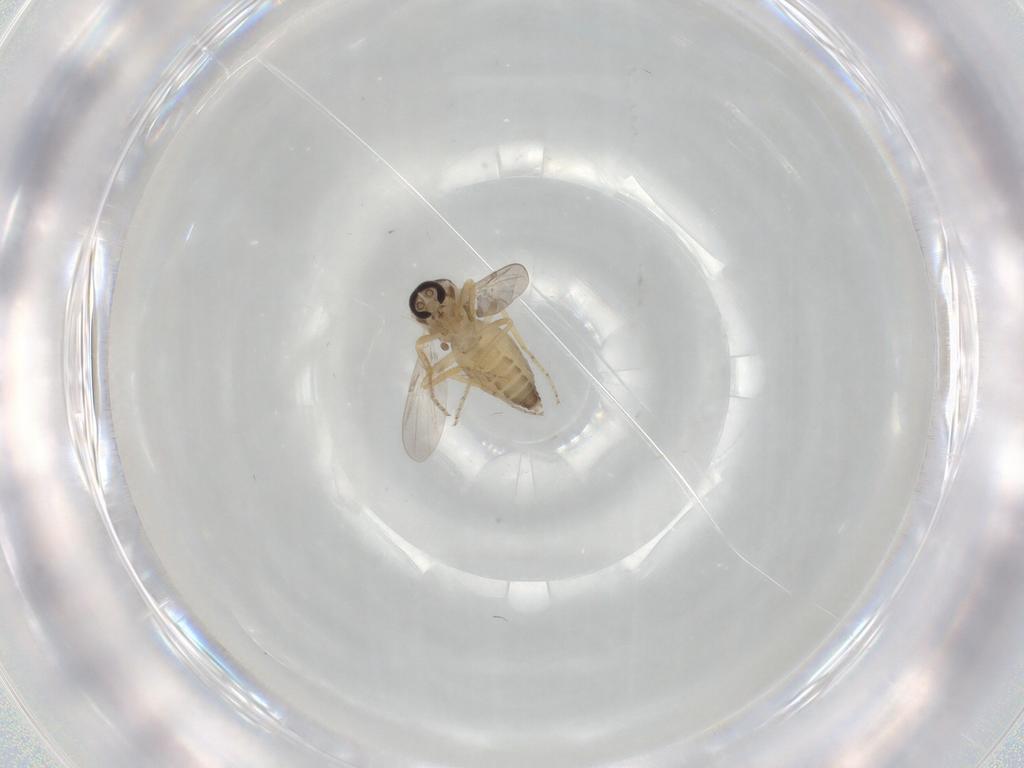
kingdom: Animalia
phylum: Arthropoda
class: Insecta
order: Diptera
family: Ceratopogonidae
